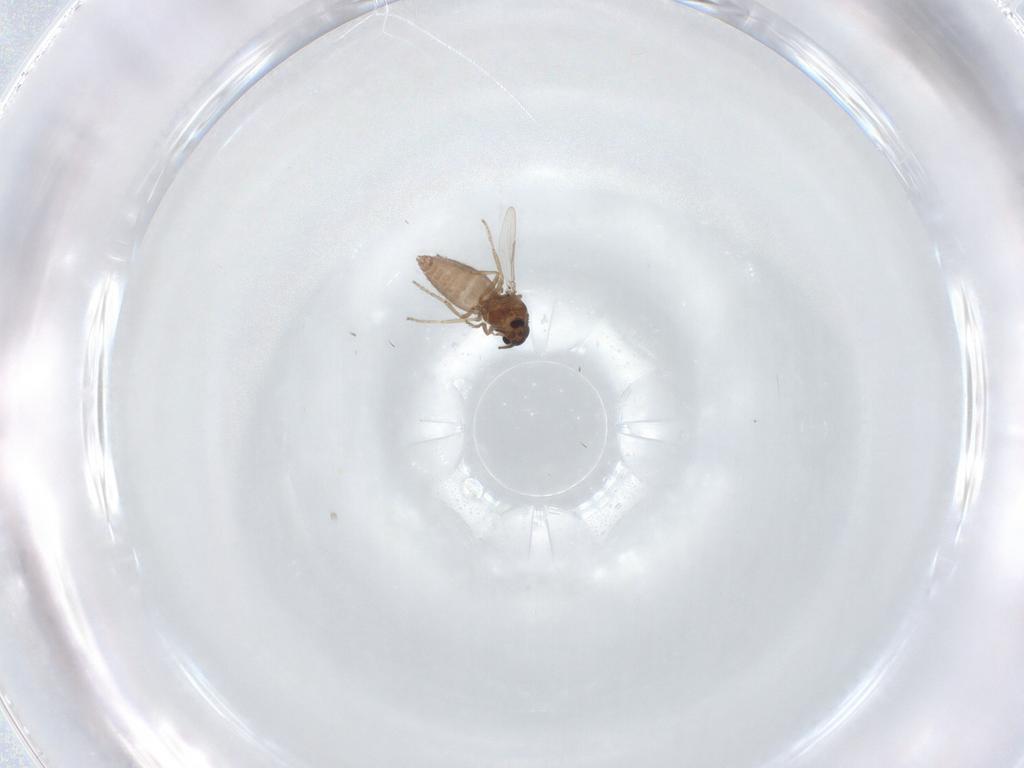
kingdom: Animalia
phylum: Arthropoda
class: Insecta
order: Diptera
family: Ceratopogonidae
